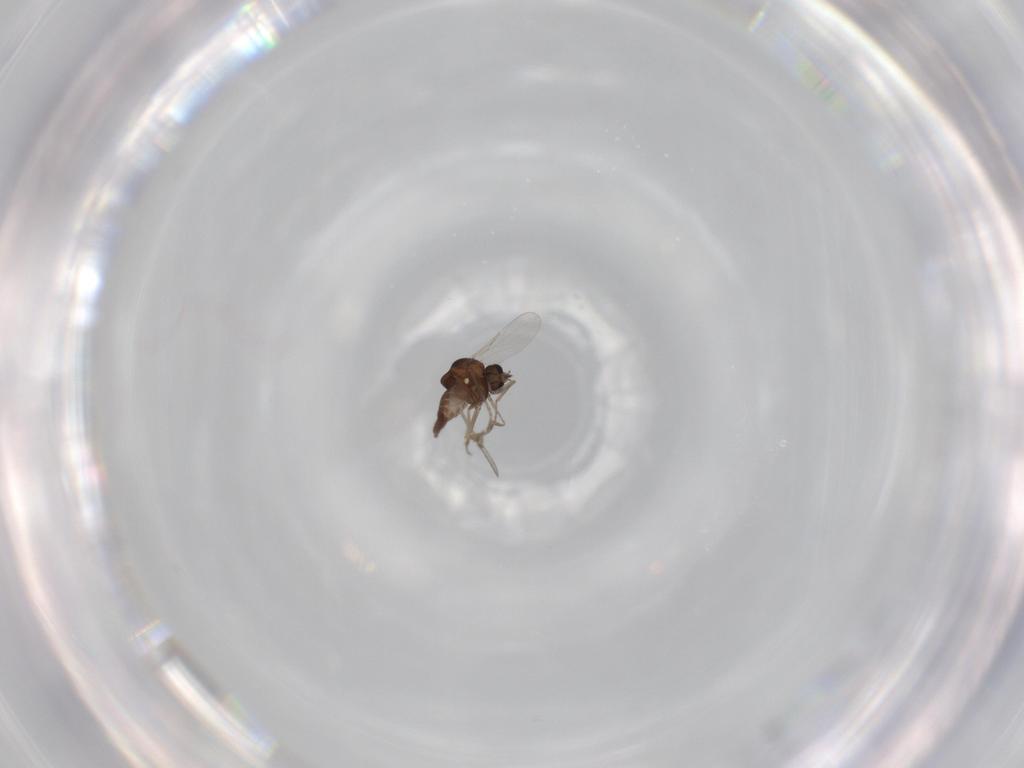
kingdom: Animalia
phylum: Arthropoda
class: Insecta
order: Diptera
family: Ceratopogonidae
